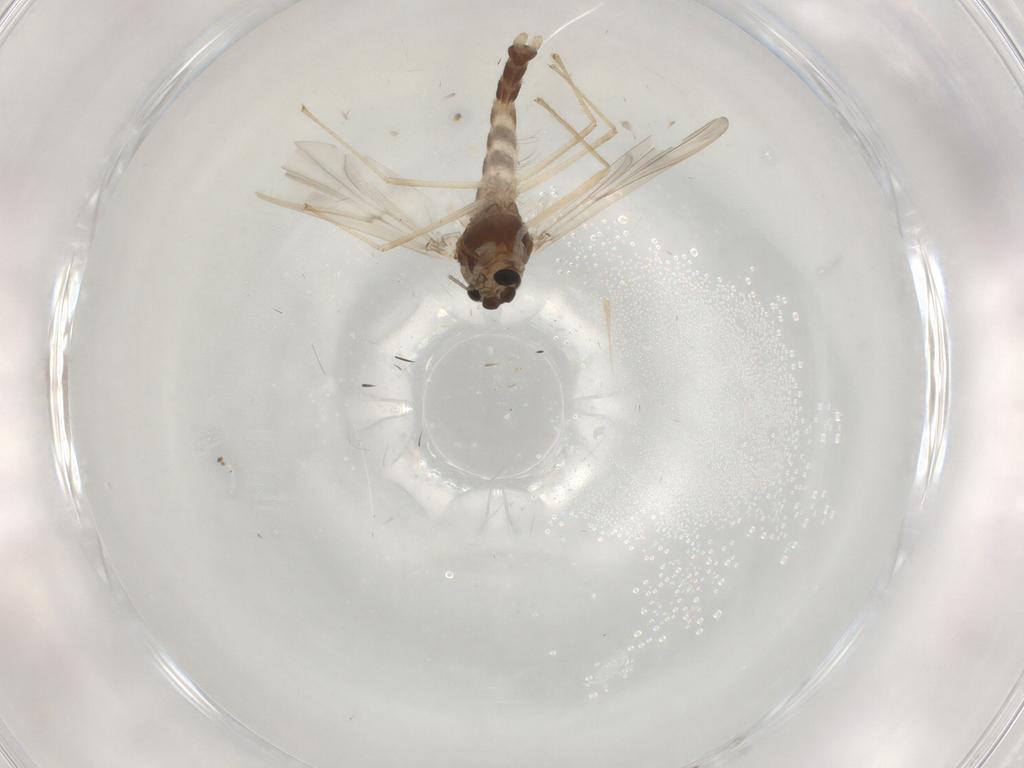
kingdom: Animalia
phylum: Arthropoda
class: Insecta
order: Diptera
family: Chironomidae
